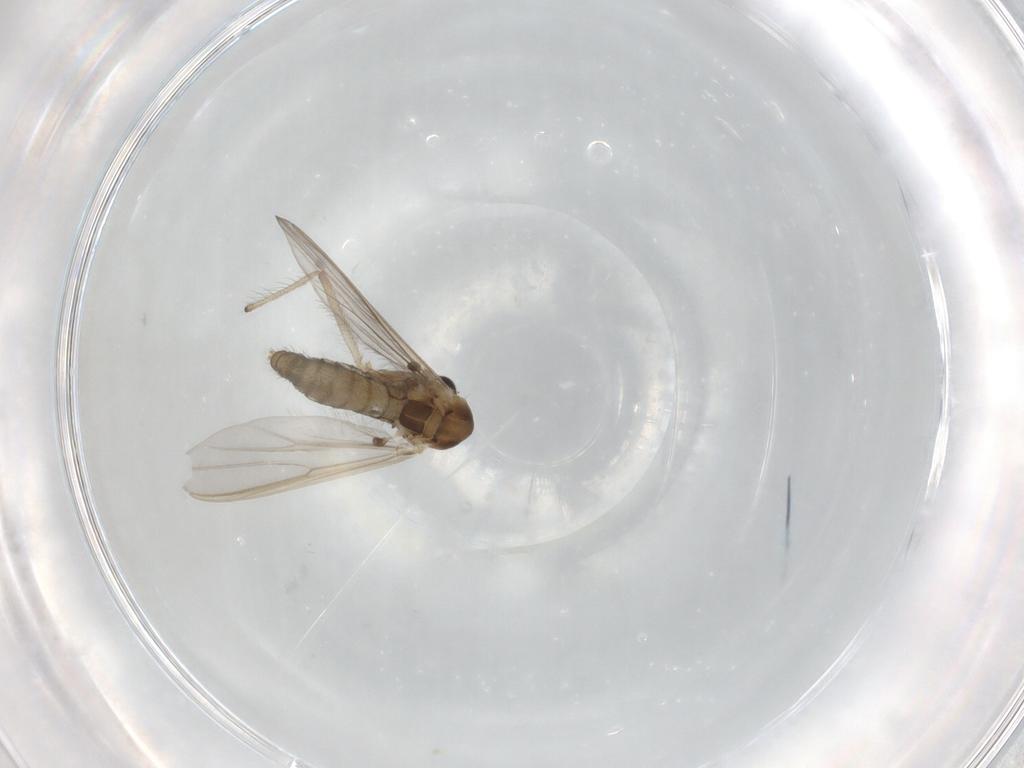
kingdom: Animalia
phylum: Arthropoda
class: Insecta
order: Diptera
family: Chironomidae
